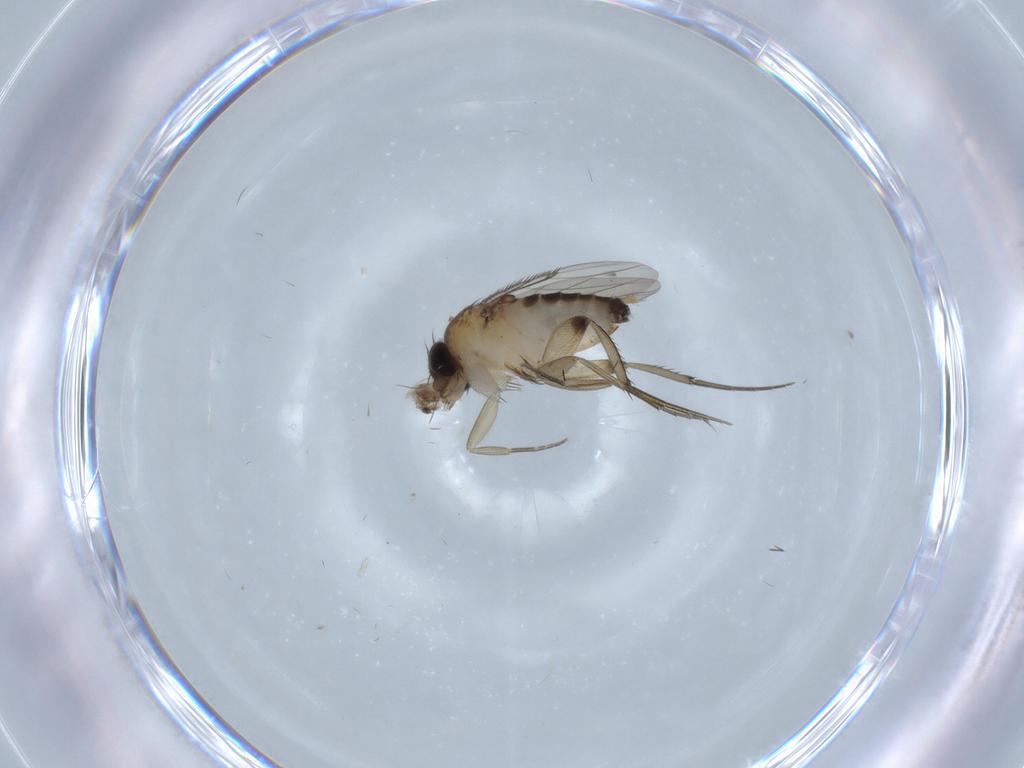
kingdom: Animalia
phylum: Arthropoda
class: Insecta
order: Diptera
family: Phoridae
